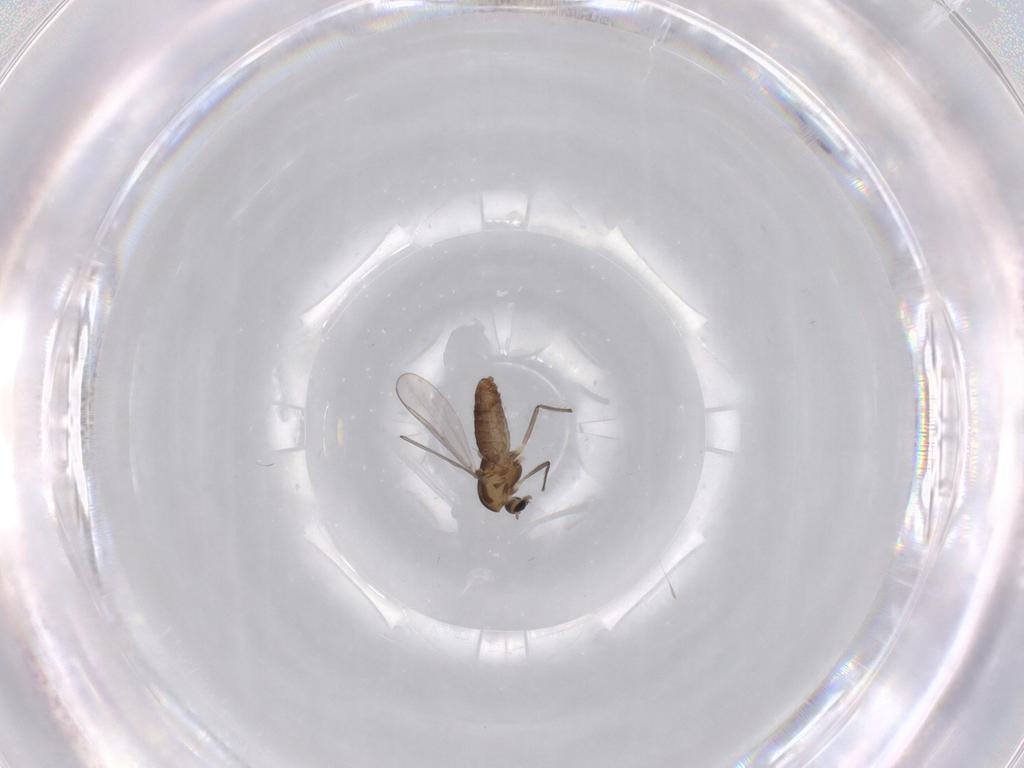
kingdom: Animalia
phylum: Arthropoda
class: Insecta
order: Diptera
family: Chironomidae
